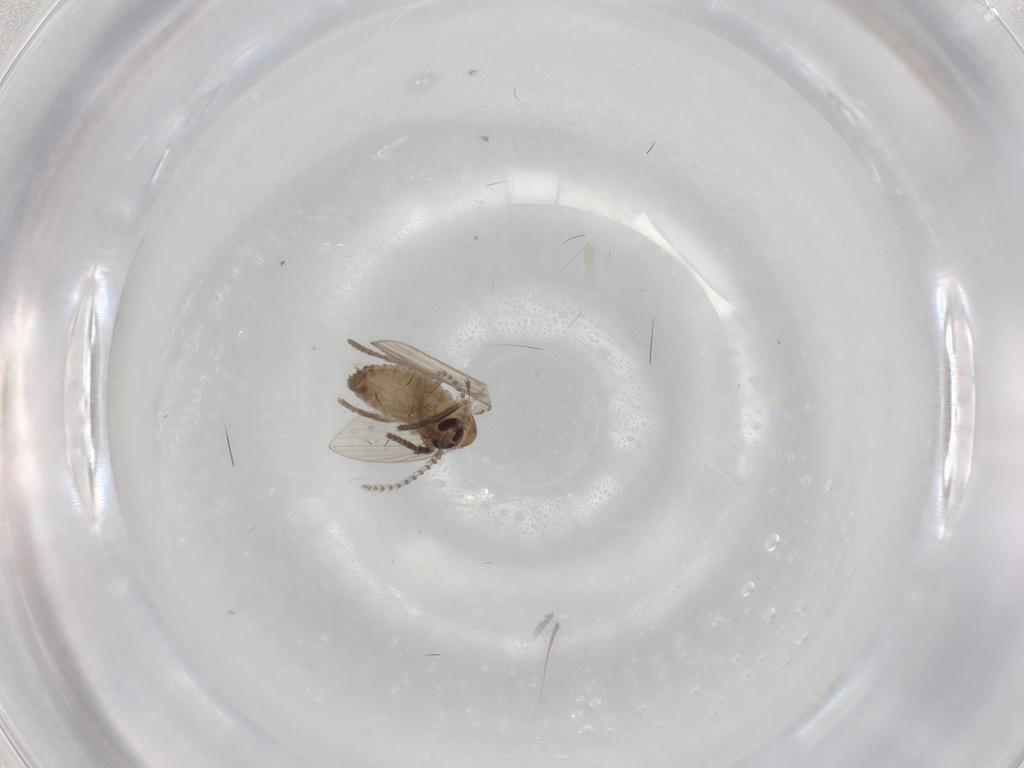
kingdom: Animalia
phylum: Arthropoda
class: Insecta
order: Diptera
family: Psychodidae
